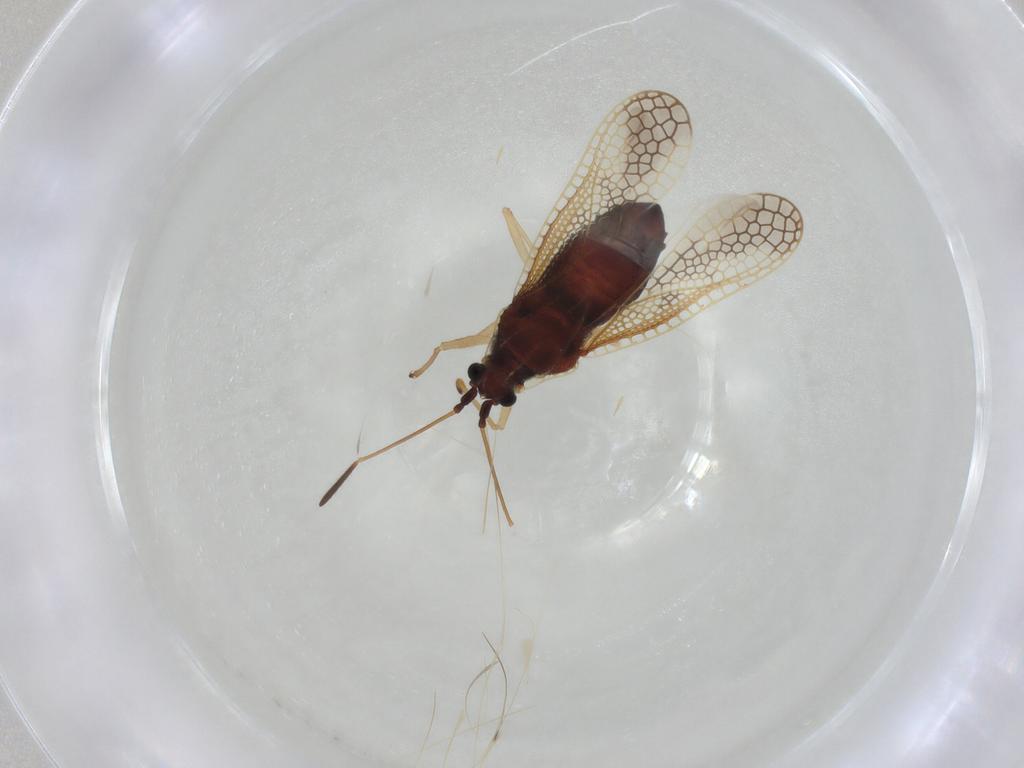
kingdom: Animalia
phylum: Arthropoda
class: Insecta
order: Hemiptera
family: Tingidae
